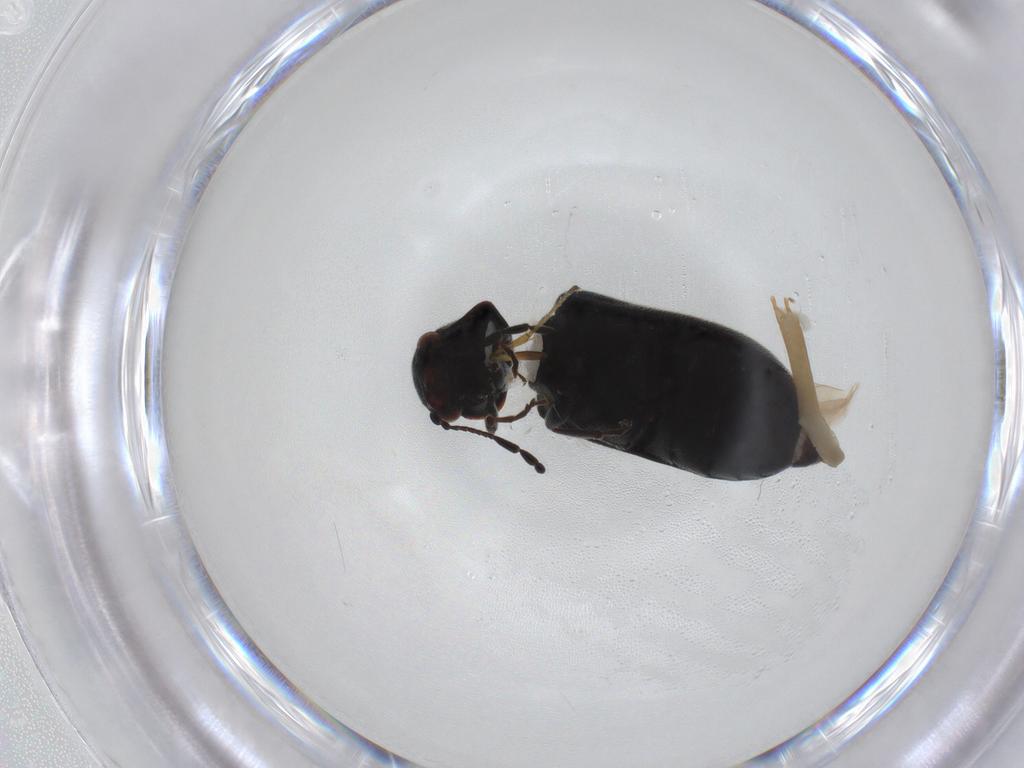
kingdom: Animalia
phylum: Arthropoda
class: Insecta
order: Coleoptera
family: Ptinidae
